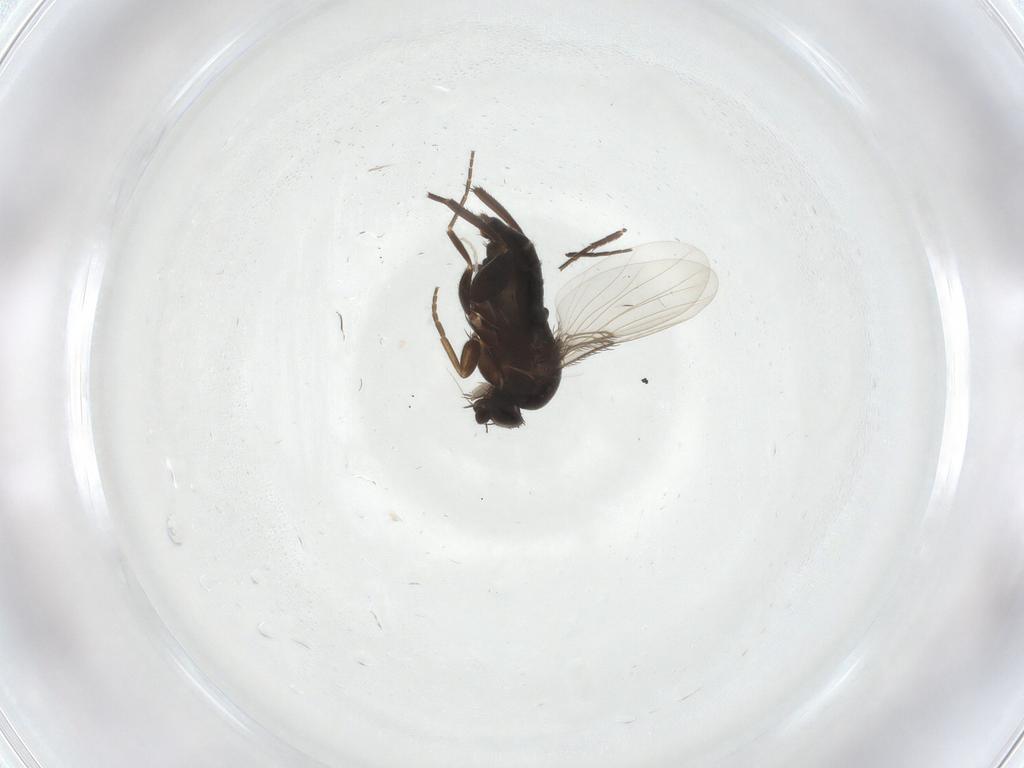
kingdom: Animalia
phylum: Arthropoda
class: Insecta
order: Diptera
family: Phoridae
